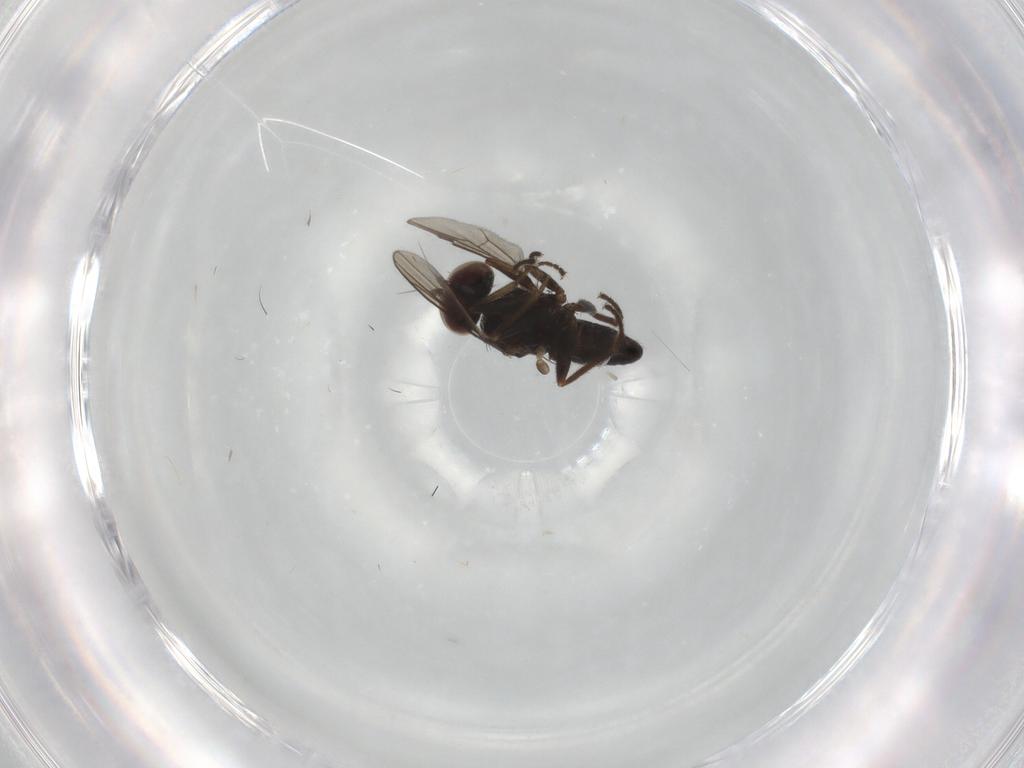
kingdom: Animalia
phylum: Arthropoda
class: Insecta
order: Diptera
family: Dolichopodidae
